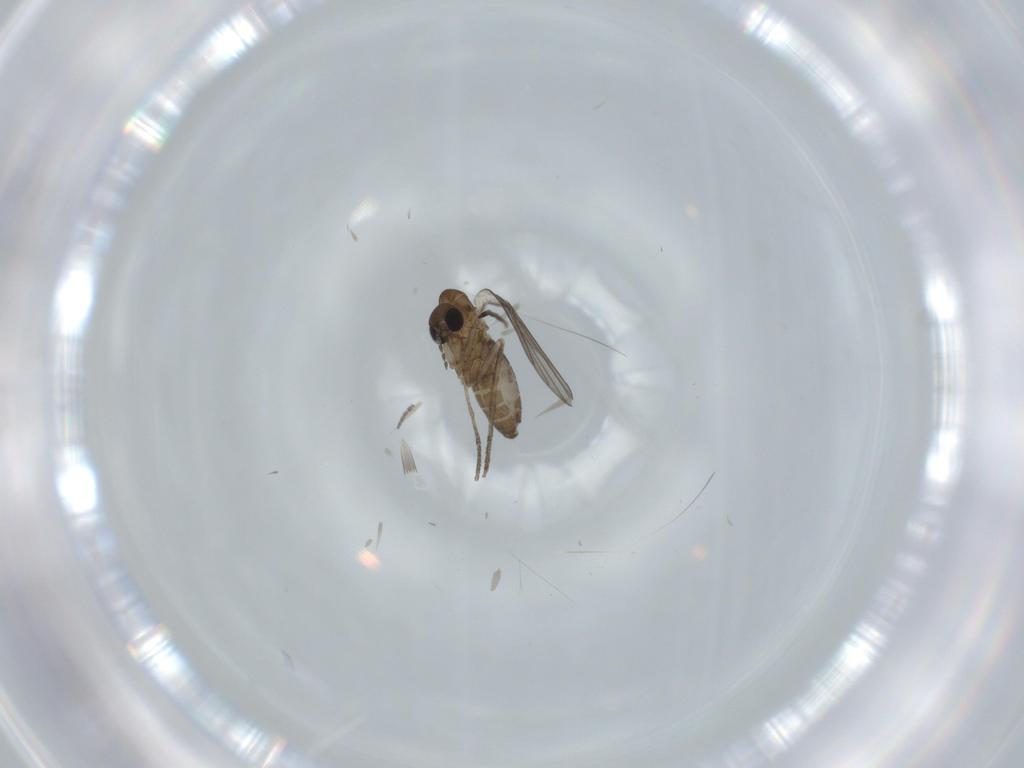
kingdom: Animalia
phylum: Arthropoda
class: Insecta
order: Diptera
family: Psychodidae
